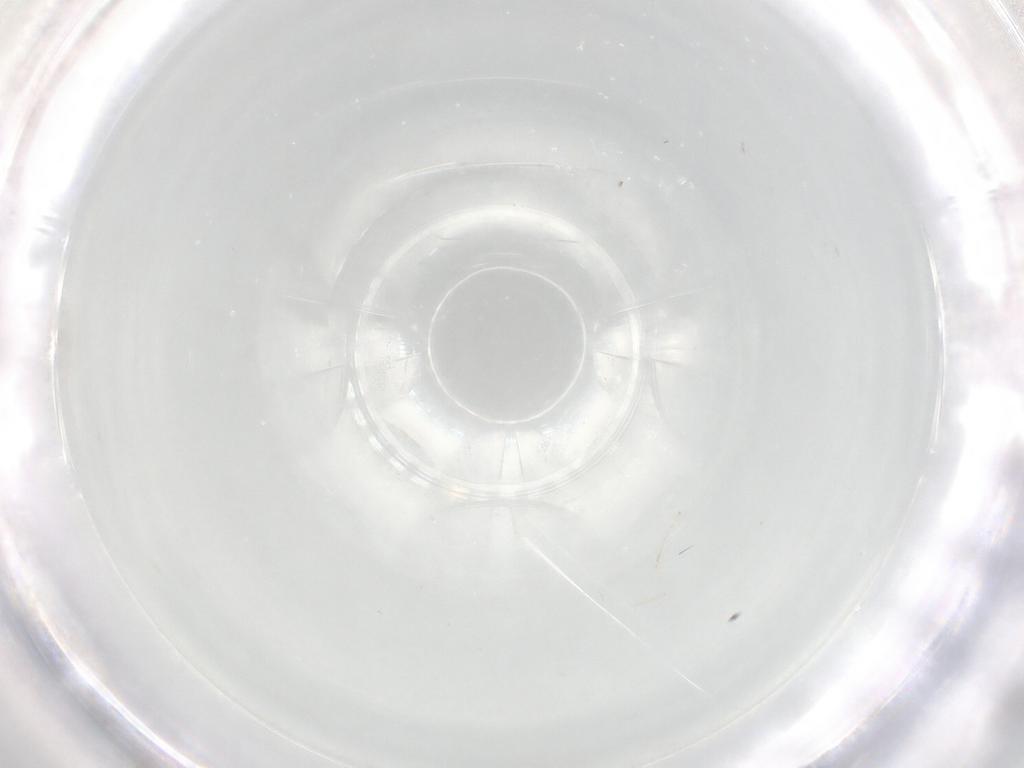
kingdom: Animalia
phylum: Arthropoda
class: Insecta
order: Hymenoptera
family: Mymaridae
